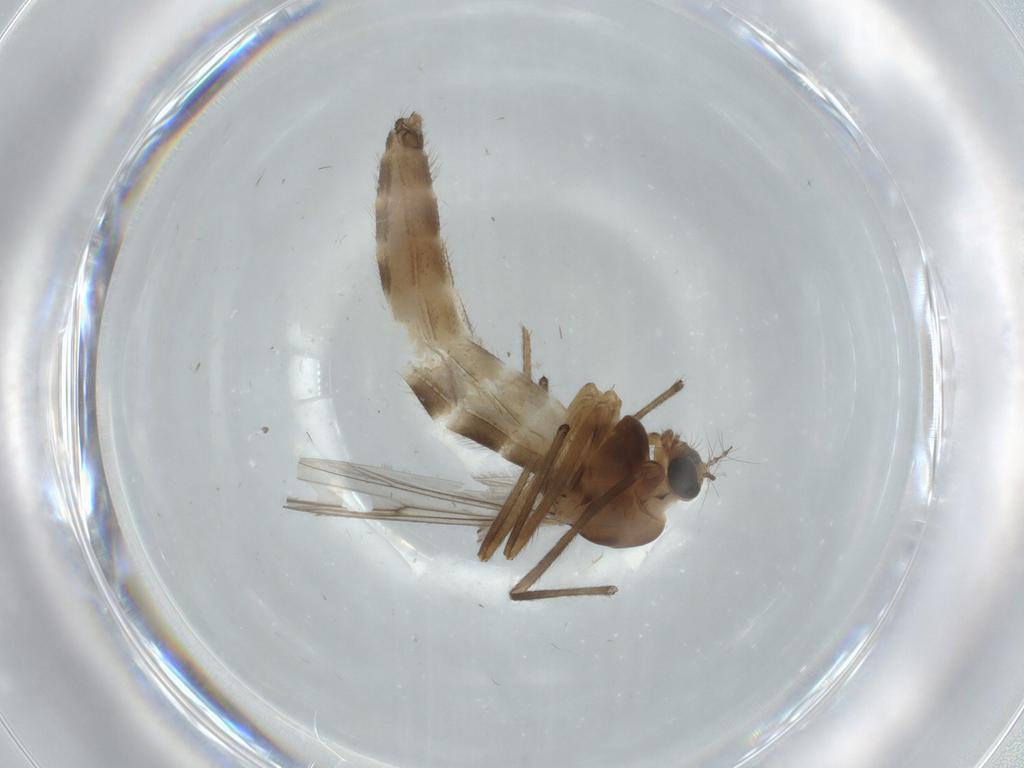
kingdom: Animalia
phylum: Arthropoda
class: Insecta
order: Diptera
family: Chironomidae
